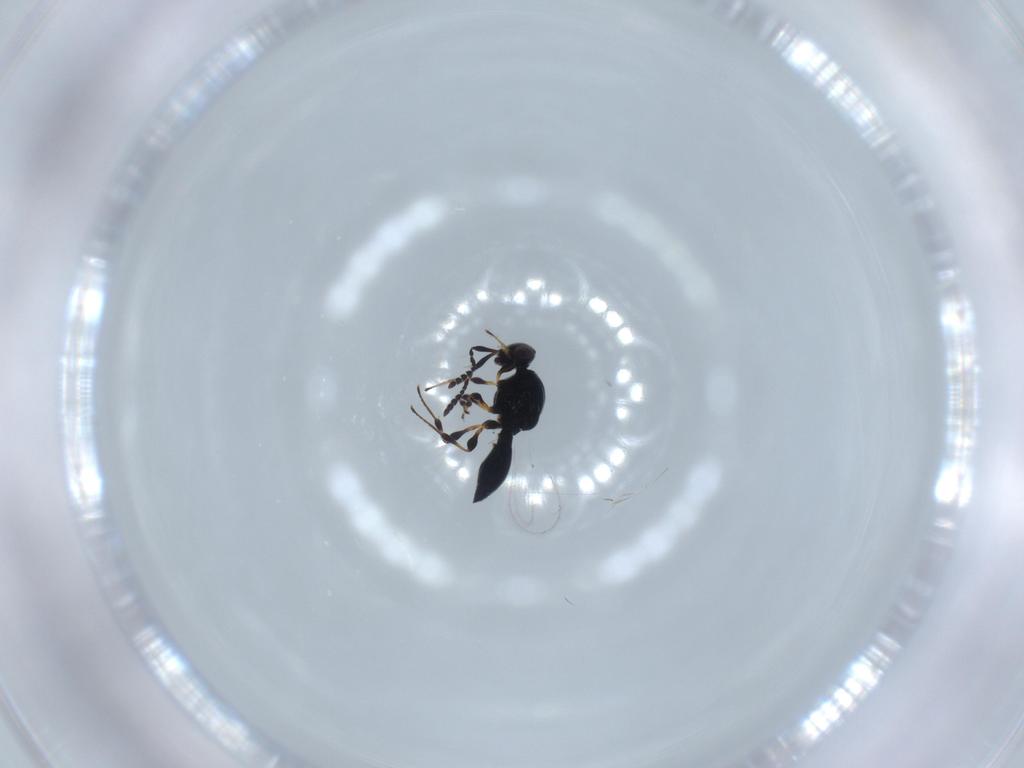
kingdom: Animalia
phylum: Arthropoda
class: Insecta
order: Hymenoptera
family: Platygastridae
